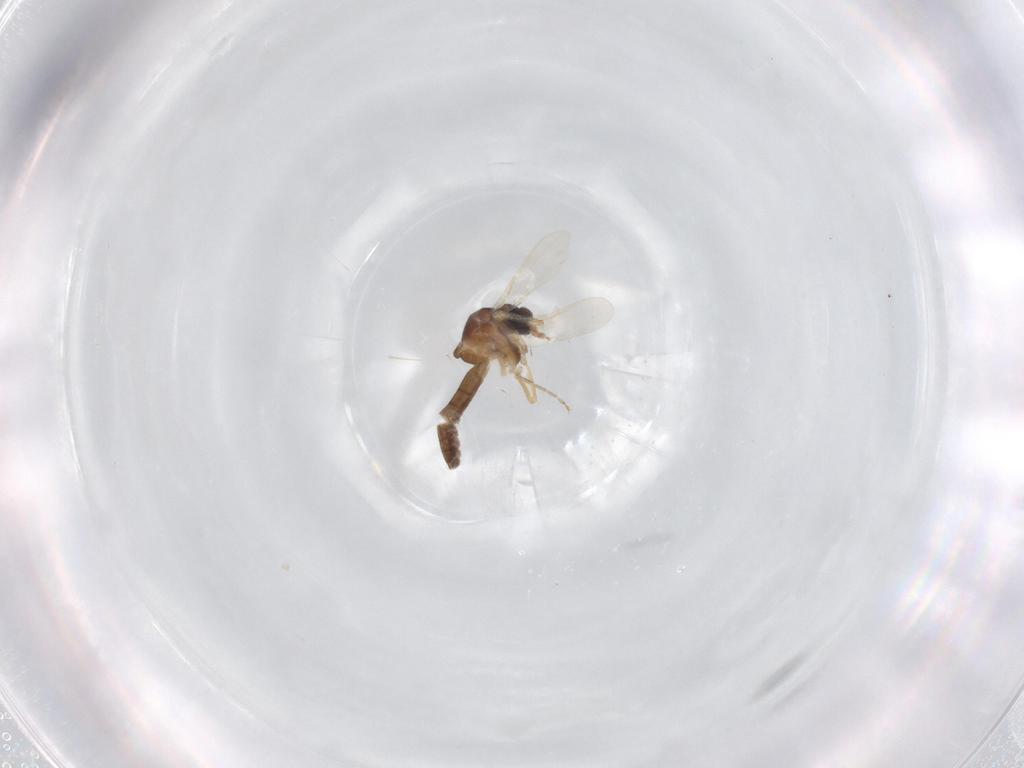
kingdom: Animalia
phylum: Arthropoda
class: Insecta
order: Diptera
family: Ceratopogonidae
